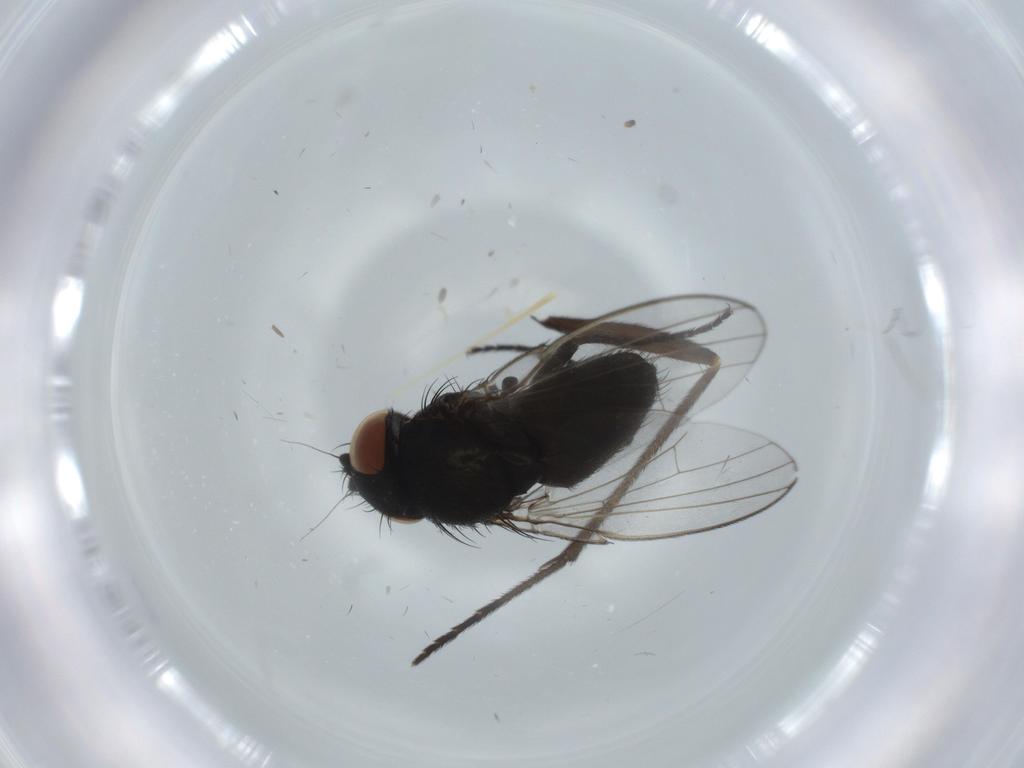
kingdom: Animalia
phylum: Arthropoda
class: Insecta
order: Diptera
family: Milichiidae
